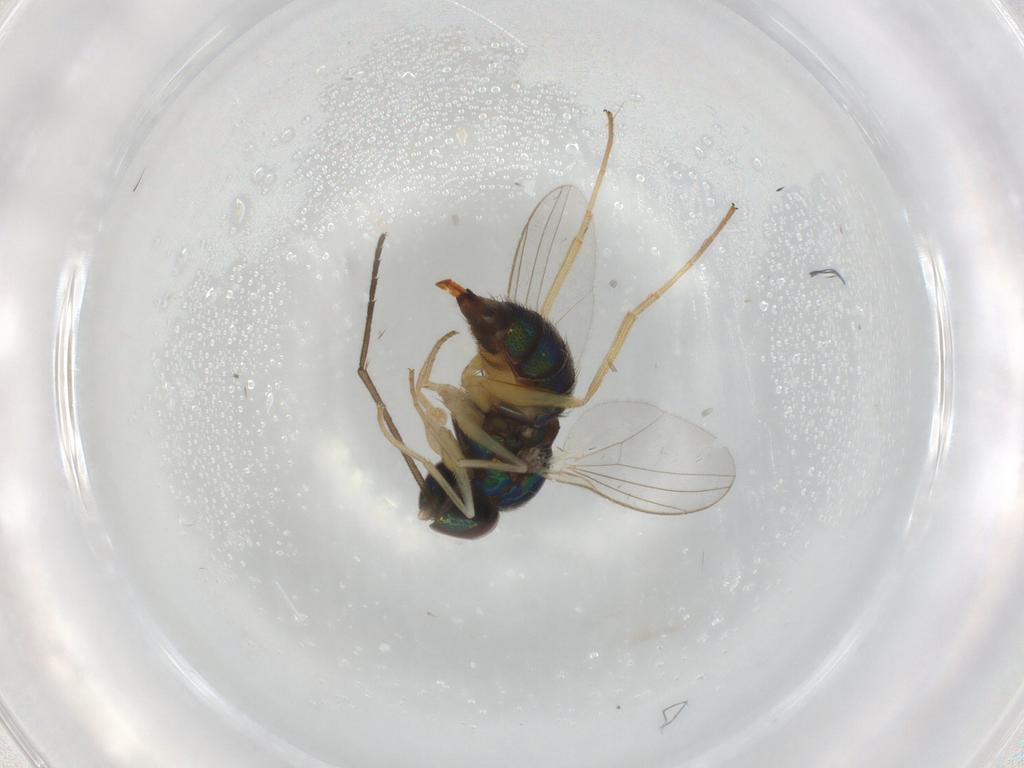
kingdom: Animalia
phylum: Arthropoda
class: Insecta
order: Diptera
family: Dolichopodidae
